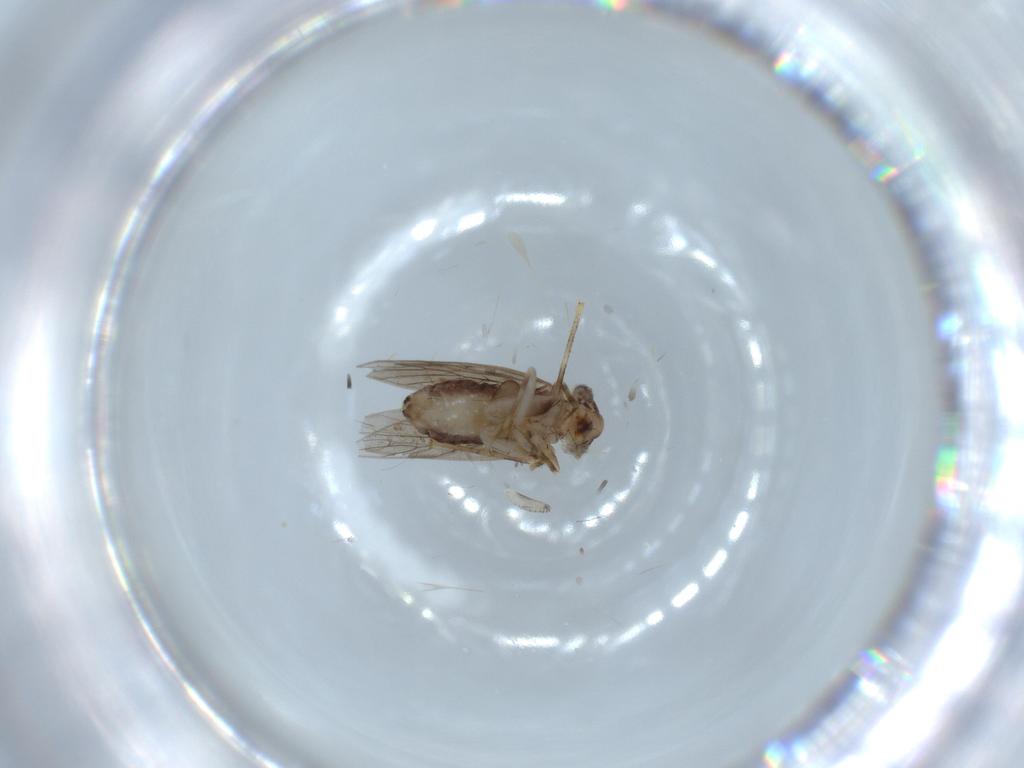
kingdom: Animalia
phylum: Arthropoda
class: Insecta
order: Psocodea
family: Lepidopsocidae
